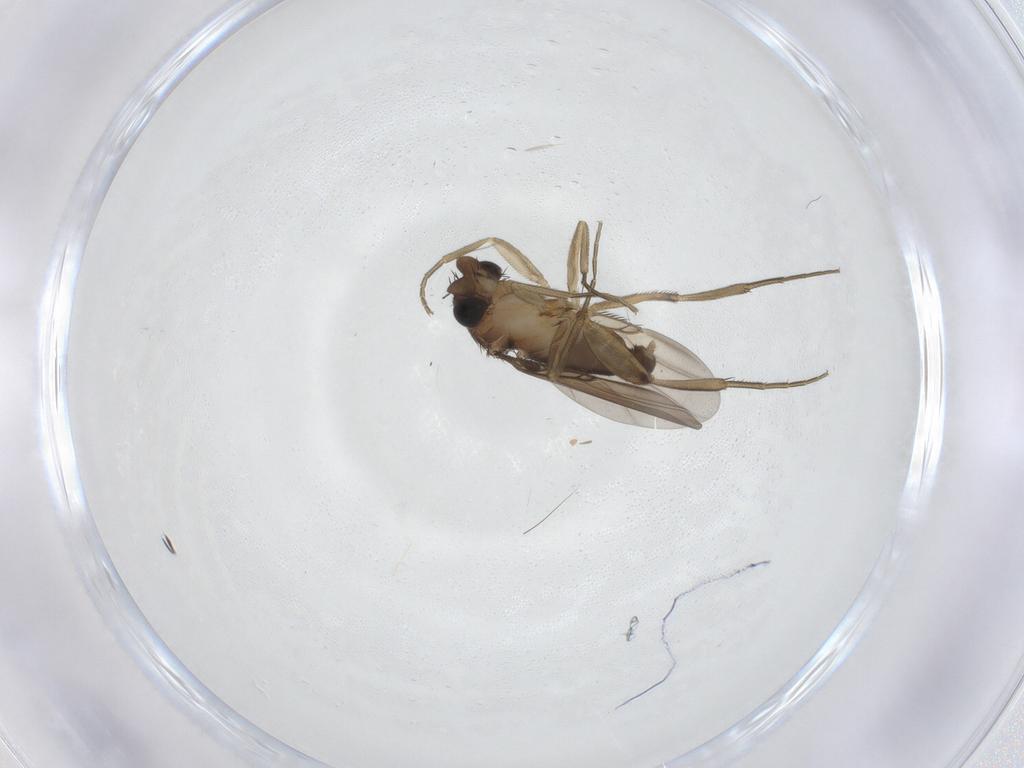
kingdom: Animalia
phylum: Arthropoda
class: Insecta
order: Diptera
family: Phoridae
